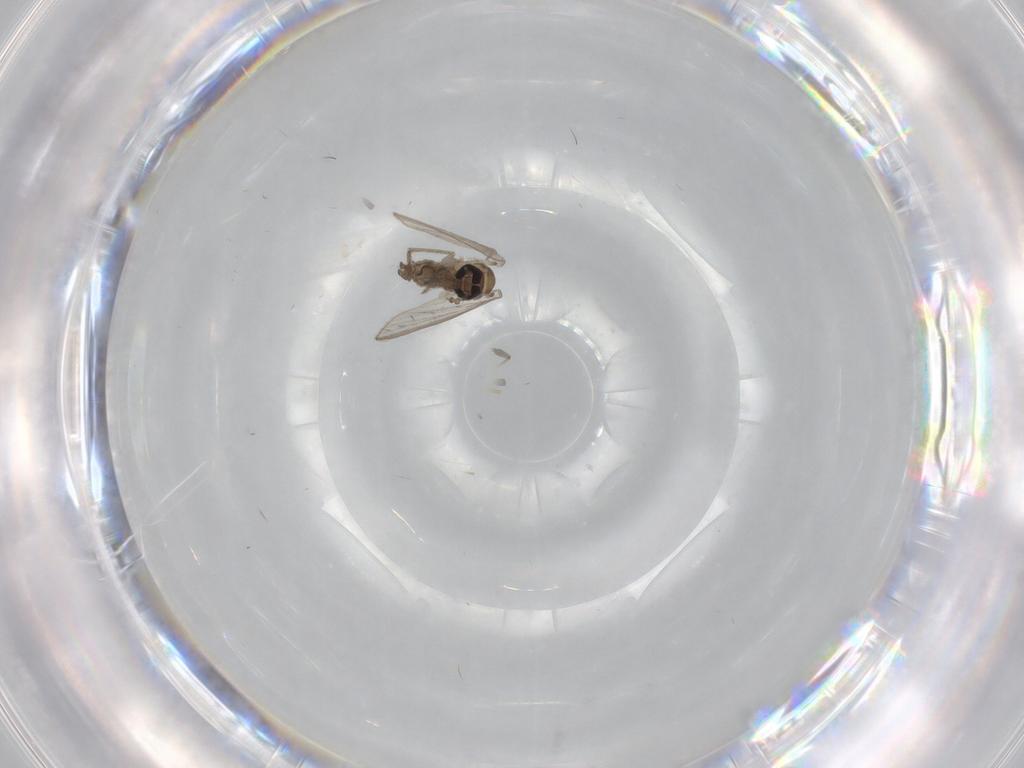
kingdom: Animalia
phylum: Arthropoda
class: Insecta
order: Diptera
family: Psychodidae
